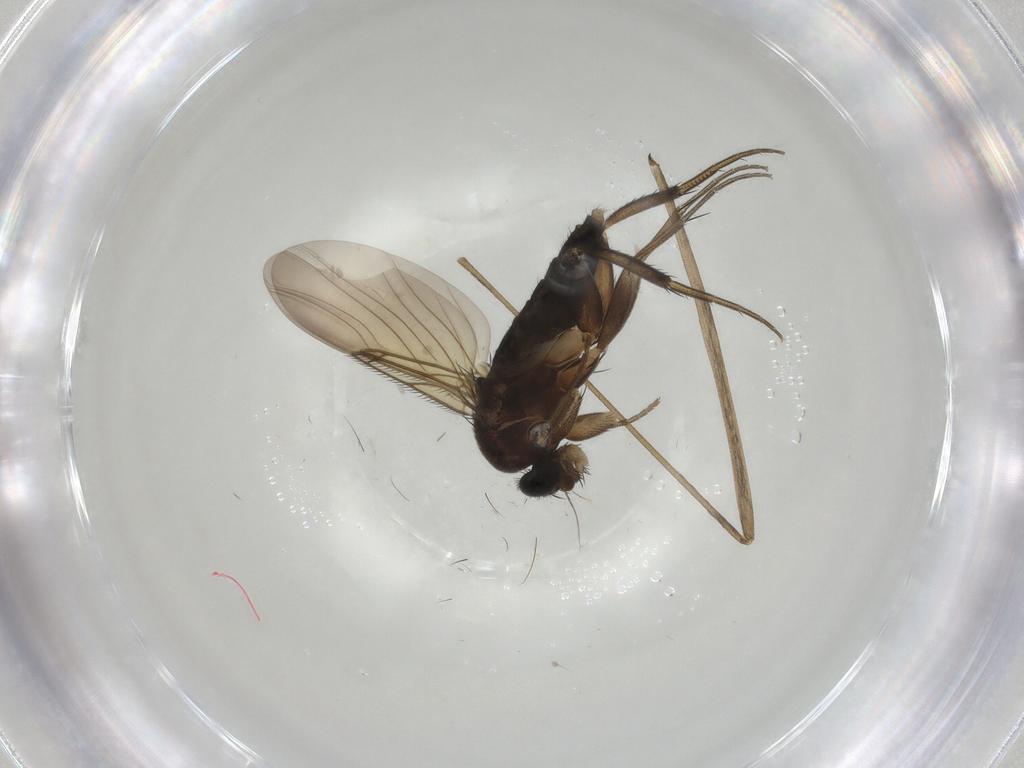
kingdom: Animalia
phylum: Arthropoda
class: Insecta
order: Diptera
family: Limoniidae
